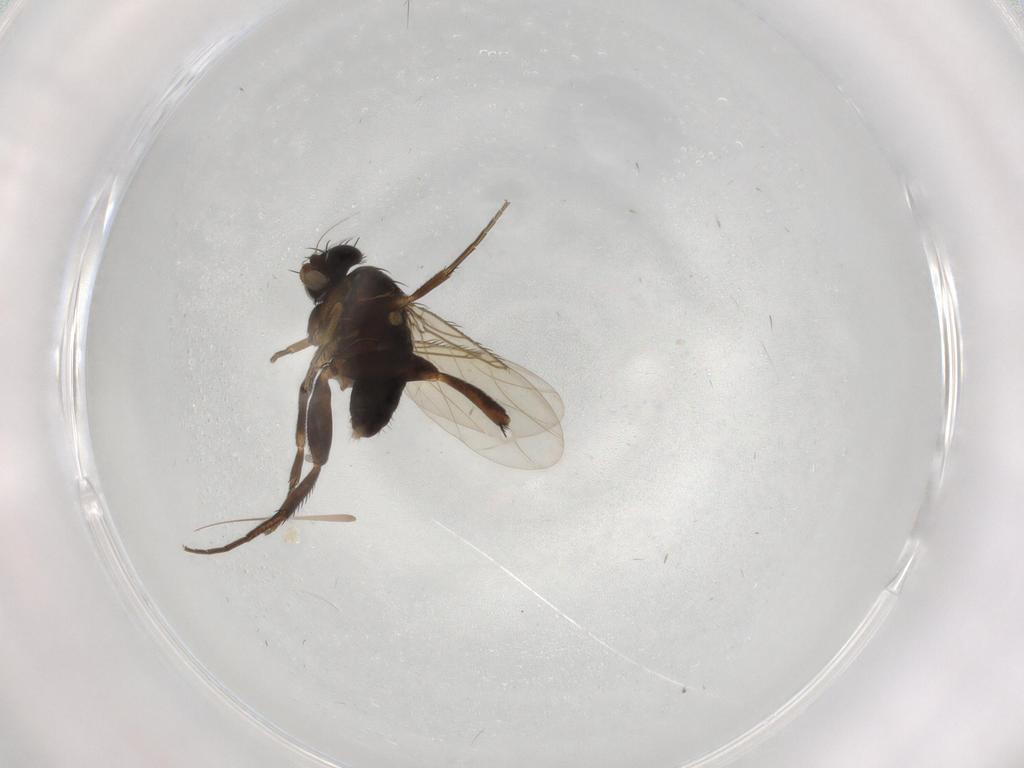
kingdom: Animalia
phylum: Arthropoda
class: Insecta
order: Diptera
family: Phoridae
